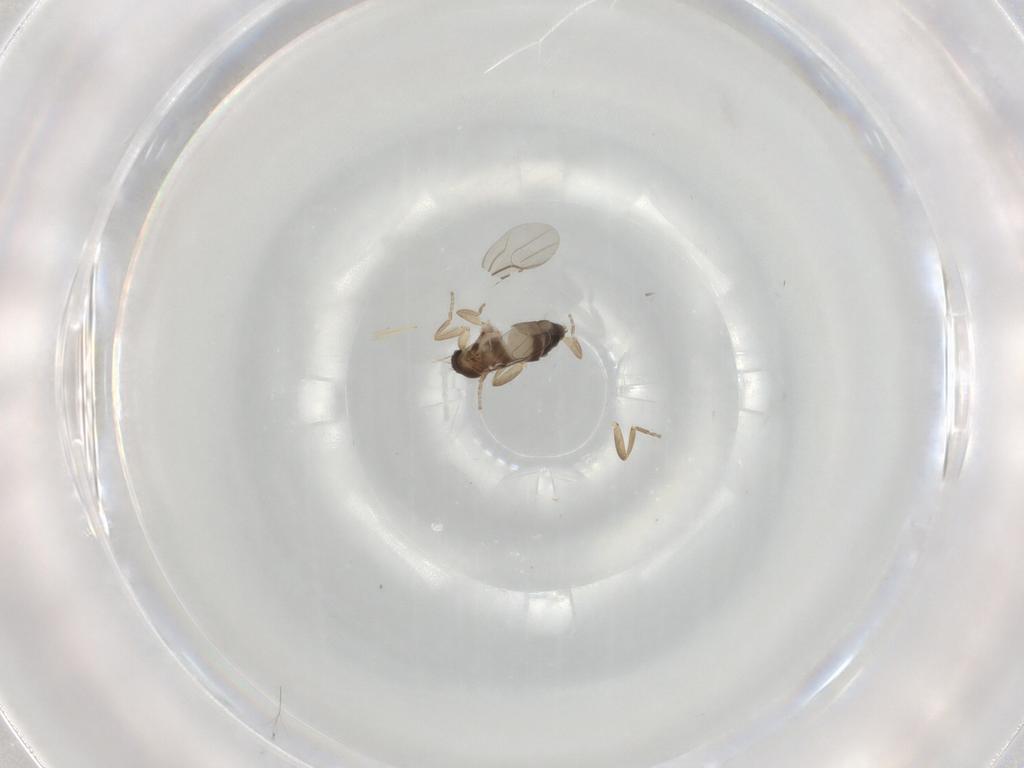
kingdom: Animalia
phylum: Arthropoda
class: Insecta
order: Diptera
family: Phoridae
